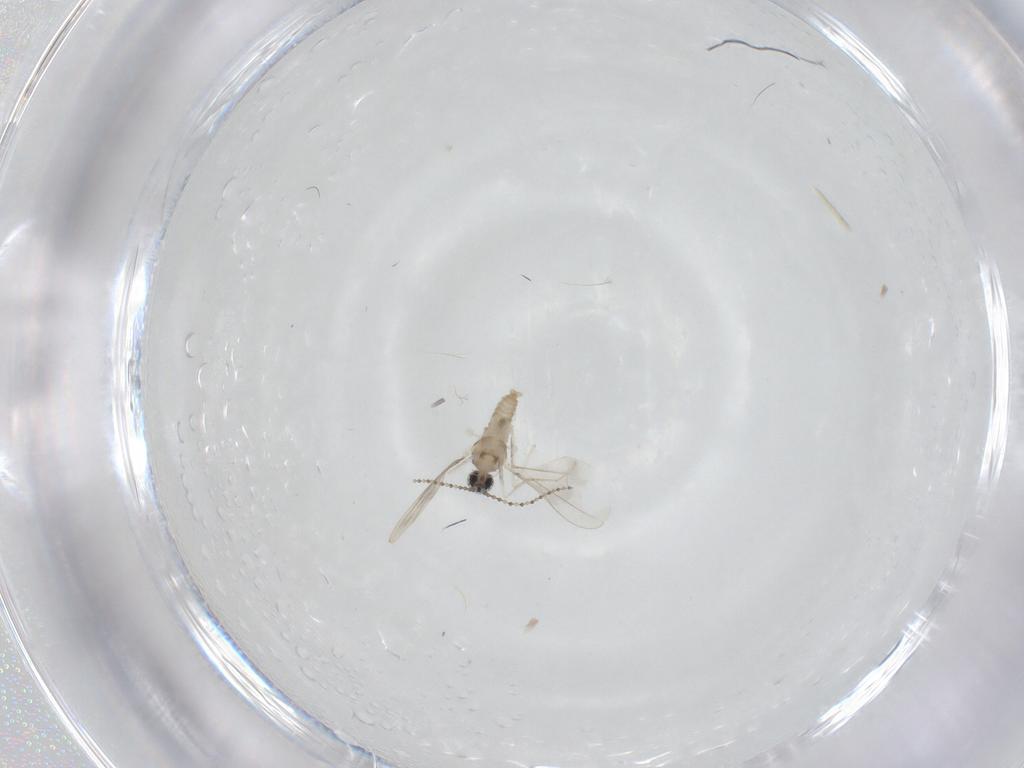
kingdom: Animalia
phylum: Arthropoda
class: Insecta
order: Diptera
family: Cecidomyiidae
